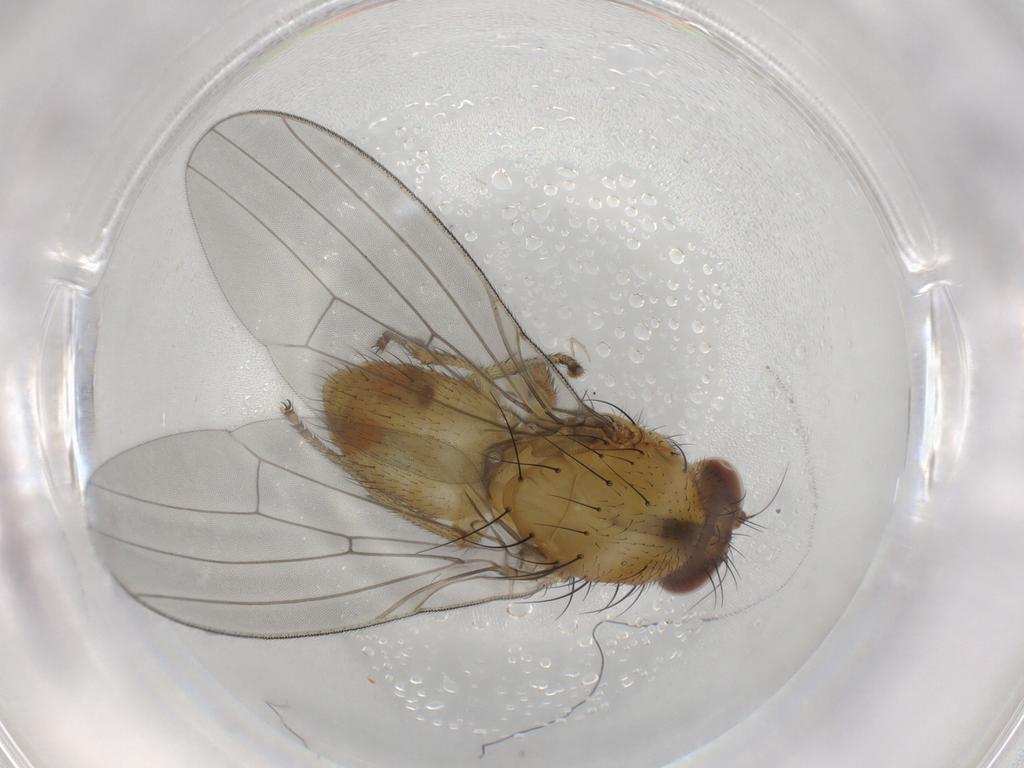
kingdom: Animalia
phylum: Arthropoda
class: Insecta
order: Diptera
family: Lauxaniidae
